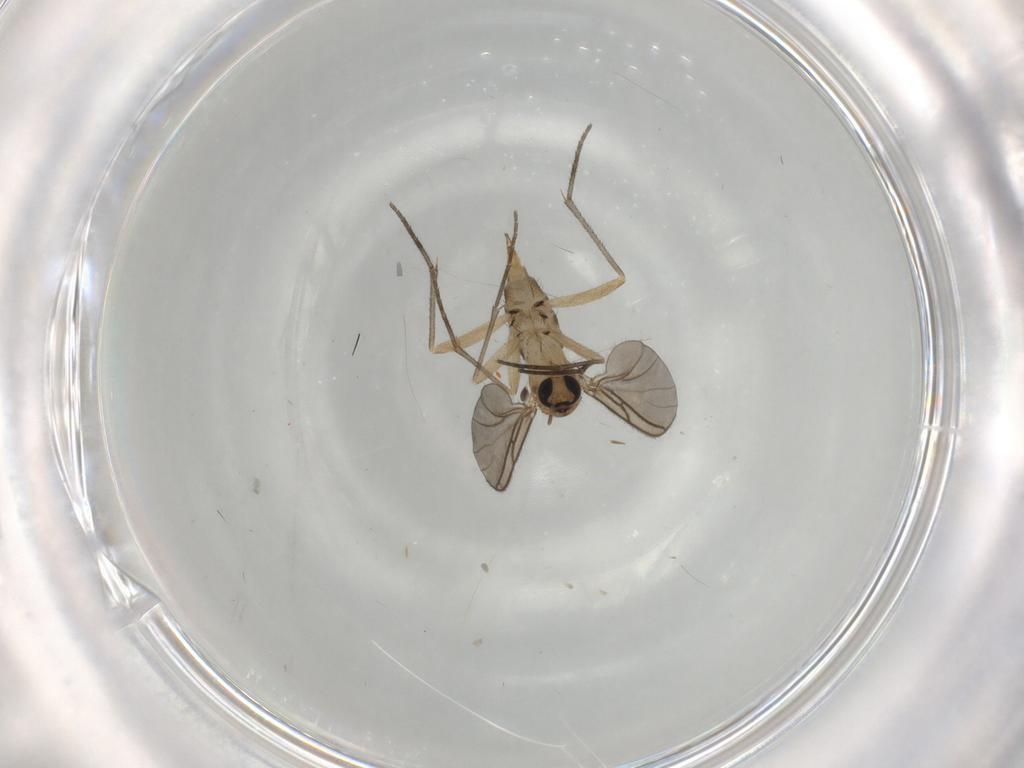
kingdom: Animalia
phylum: Arthropoda
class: Insecta
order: Diptera
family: Sciaridae
